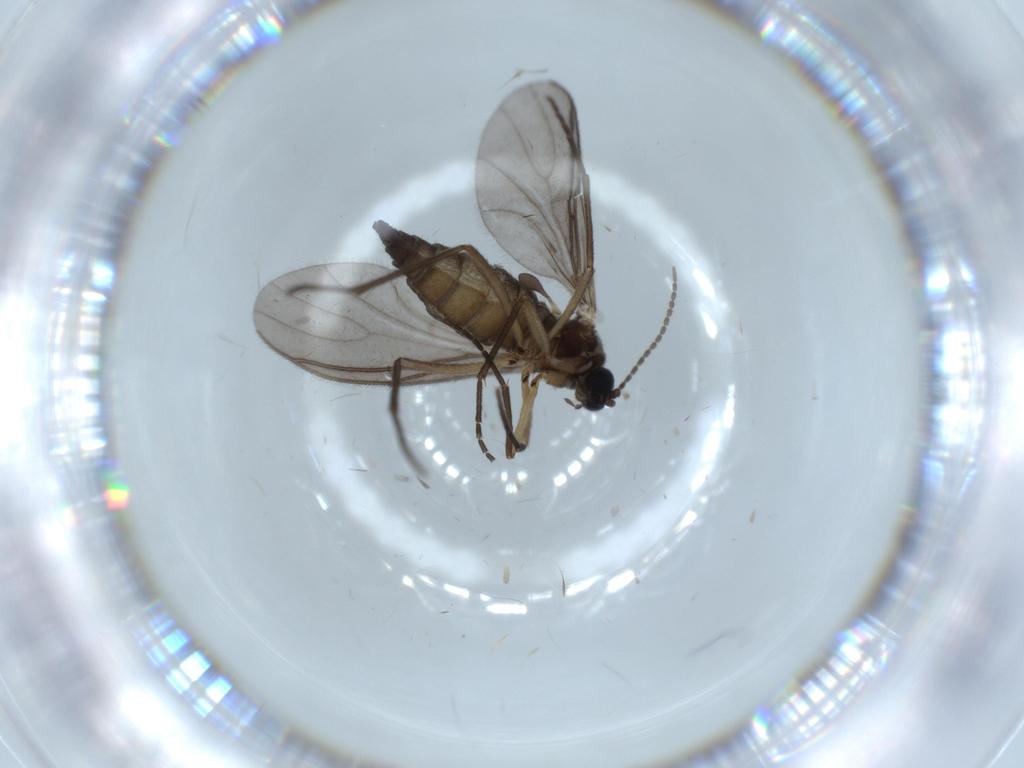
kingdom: Animalia
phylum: Arthropoda
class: Insecta
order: Diptera
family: Sciaridae
